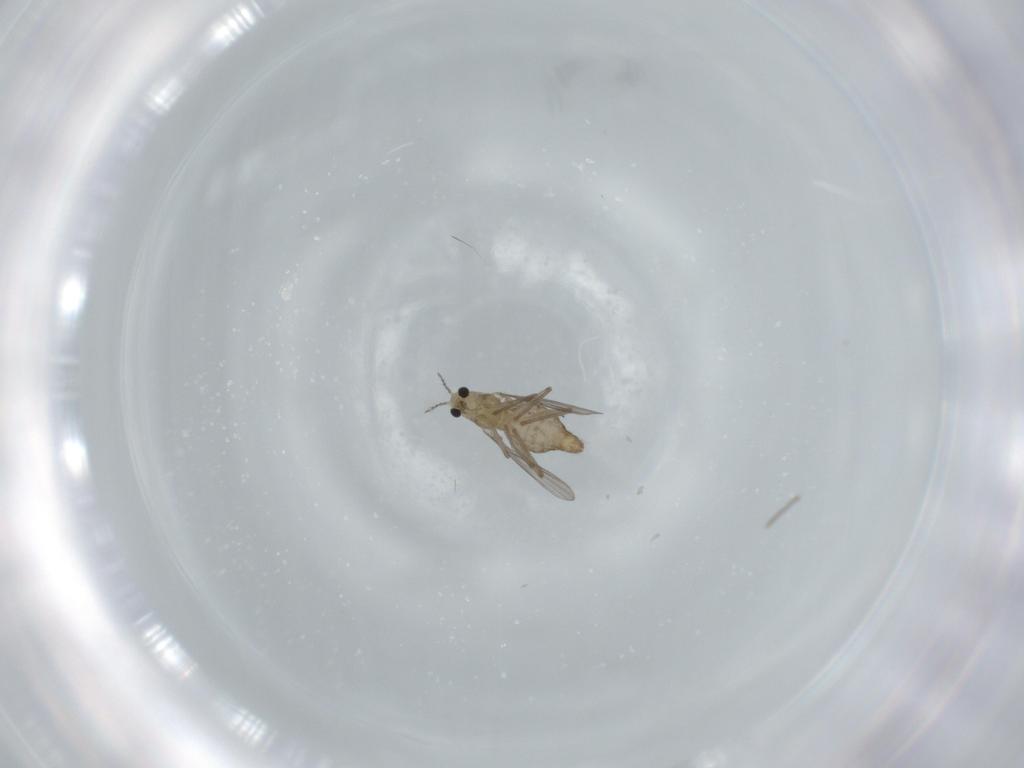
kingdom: Animalia
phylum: Arthropoda
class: Insecta
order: Diptera
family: Chironomidae
